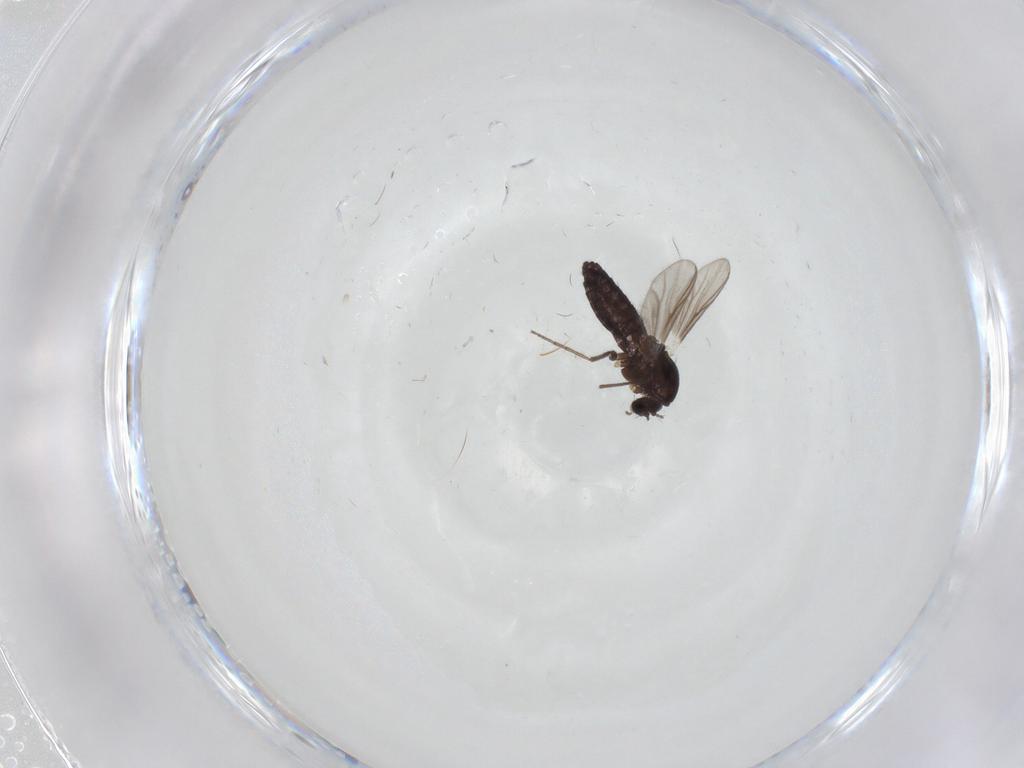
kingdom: Animalia
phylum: Arthropoda
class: Insecta
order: Diptera
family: Chironomidae
